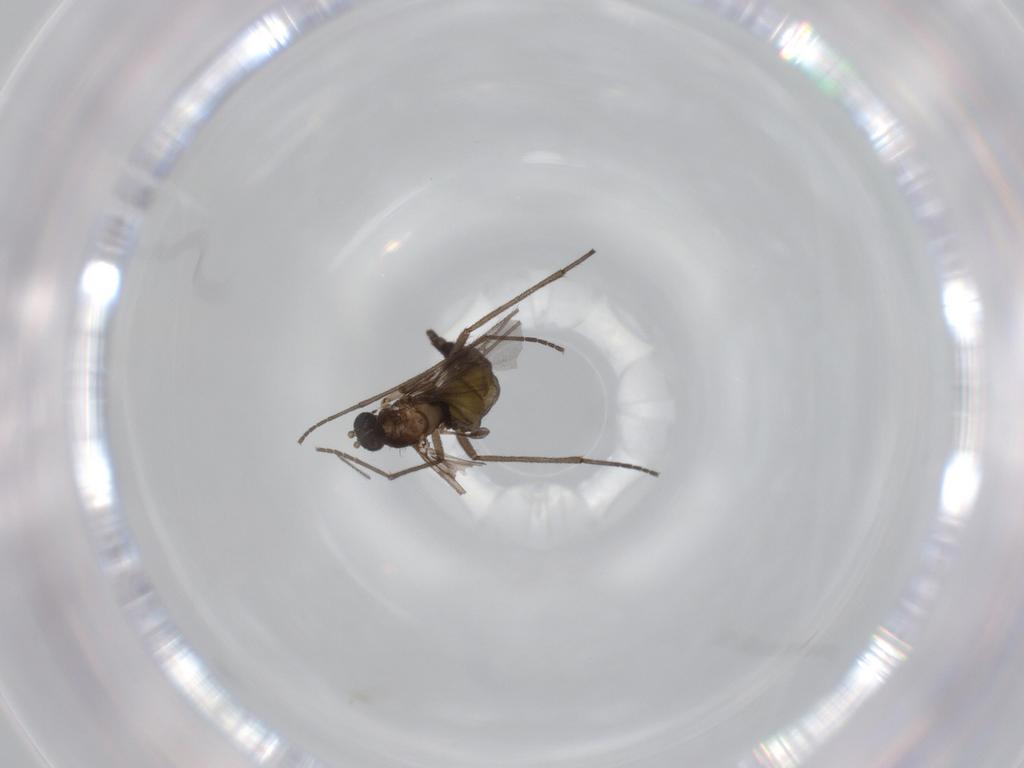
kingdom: Animalia
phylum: Arthropoda
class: Insecta
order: Diptera
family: Sciaridae
